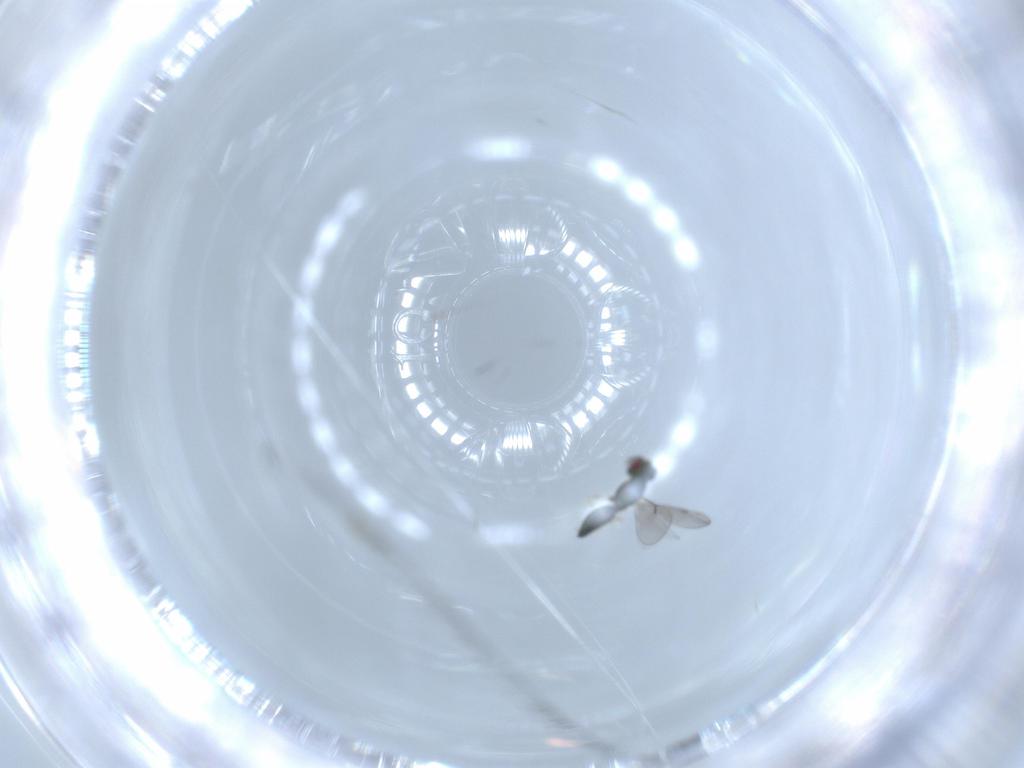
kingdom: Animalia
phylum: Arthropoda
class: Insecta
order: Hymenoptera
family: Eulophidae
